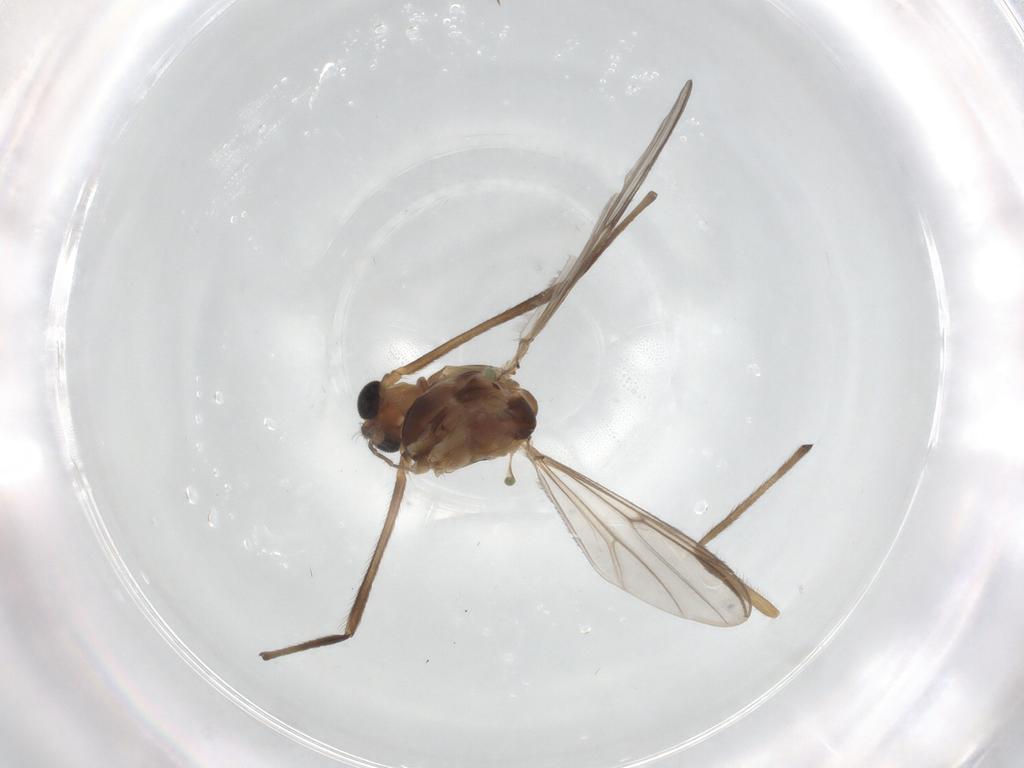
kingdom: Animalia
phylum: Arthropoda
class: Insecta
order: Diptera
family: Chironomidae
